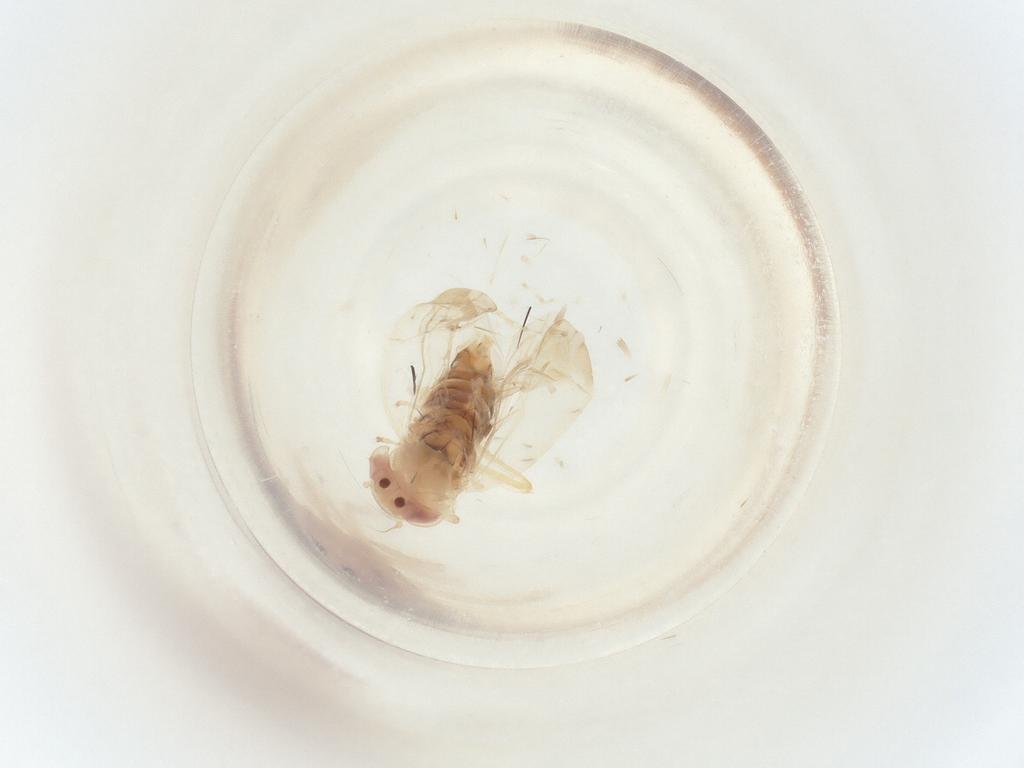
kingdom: Animalia
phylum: Arthropoda
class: Insecta
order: Hemiptera
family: Cicadellidae
